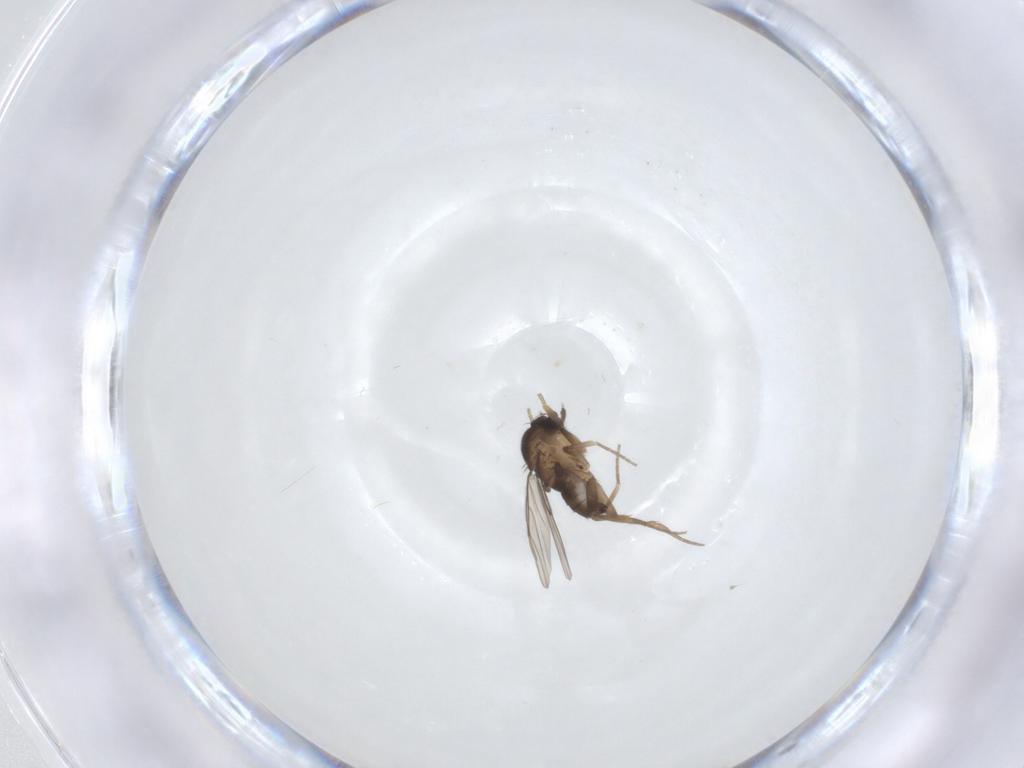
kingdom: Animalia
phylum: Arthropoda
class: Insecta
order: Diptera
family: Phoridae
